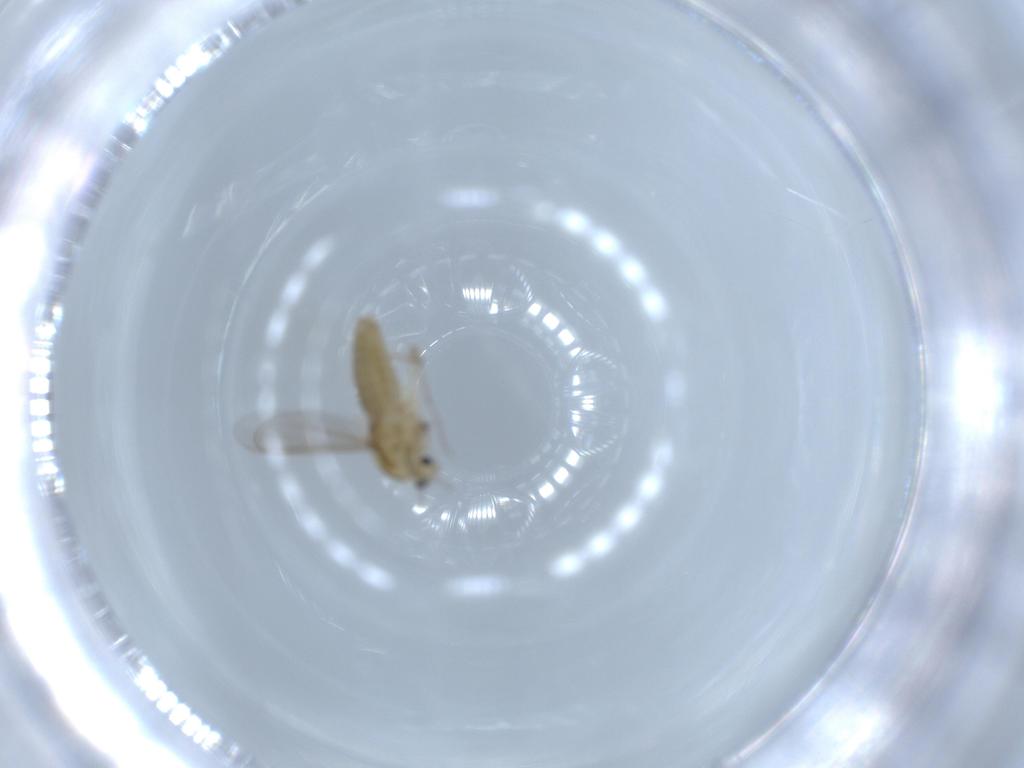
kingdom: Animalia
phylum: Arthropoda
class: Insecta
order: Diptera
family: Chironomidae
